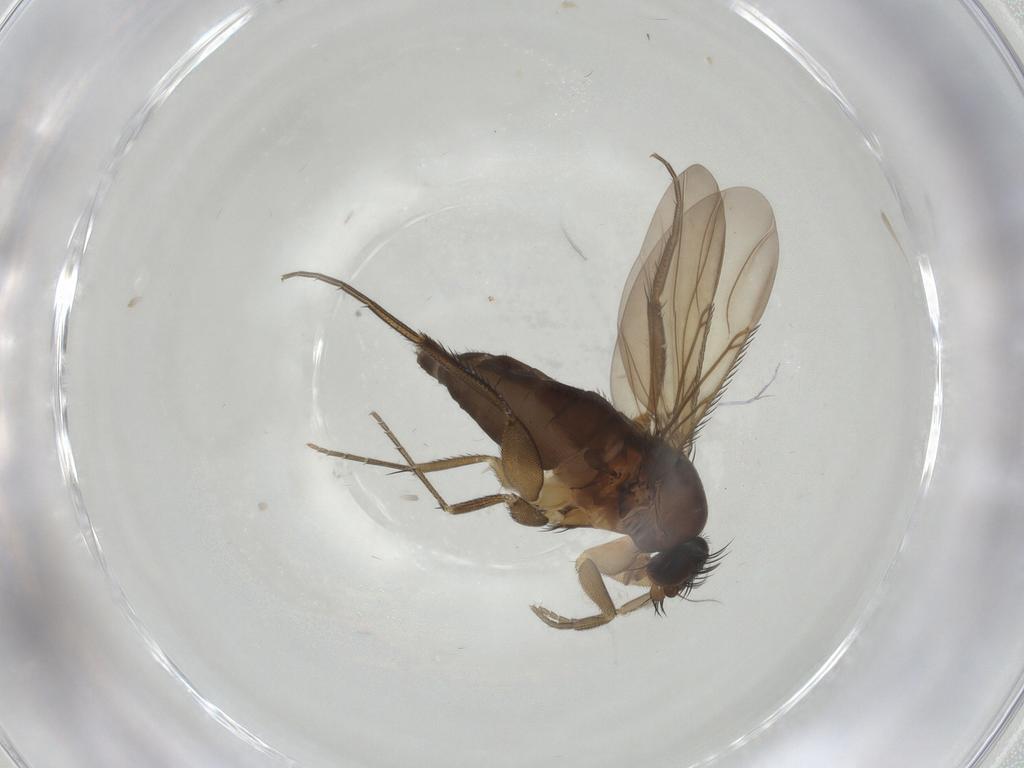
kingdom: Animalia
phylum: Arthropoda
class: Insecta
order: Diptera
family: Phoridae
